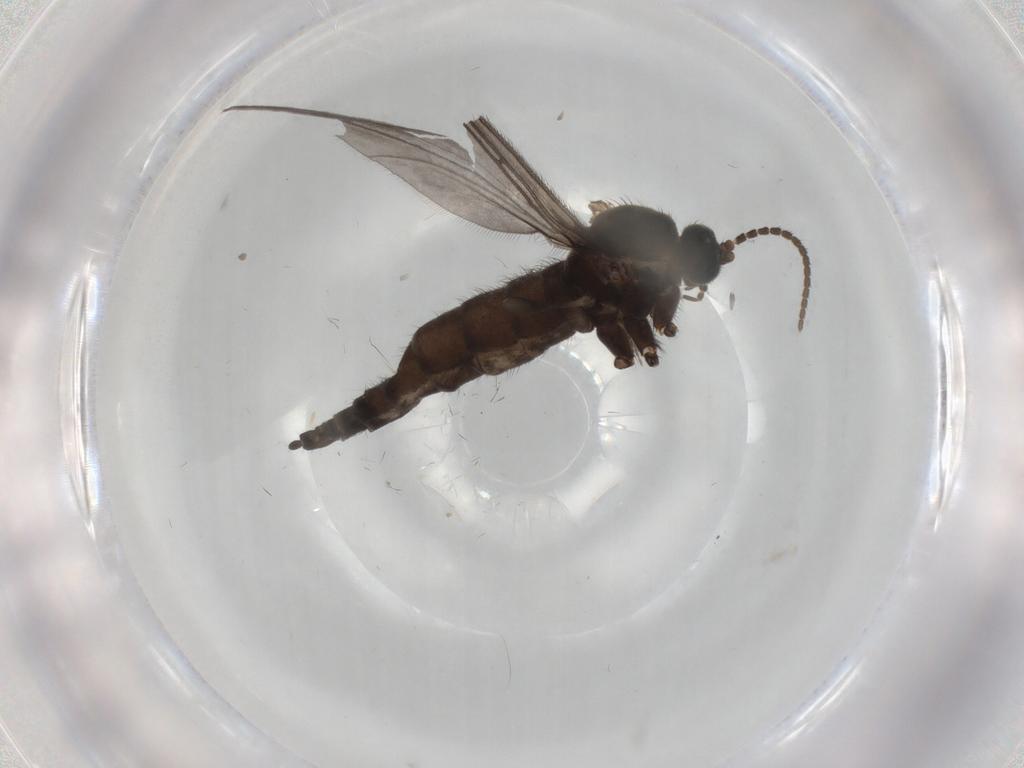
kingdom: Animalia
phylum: Arthropoda
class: Insecta
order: Diptera
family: Sciaridae
